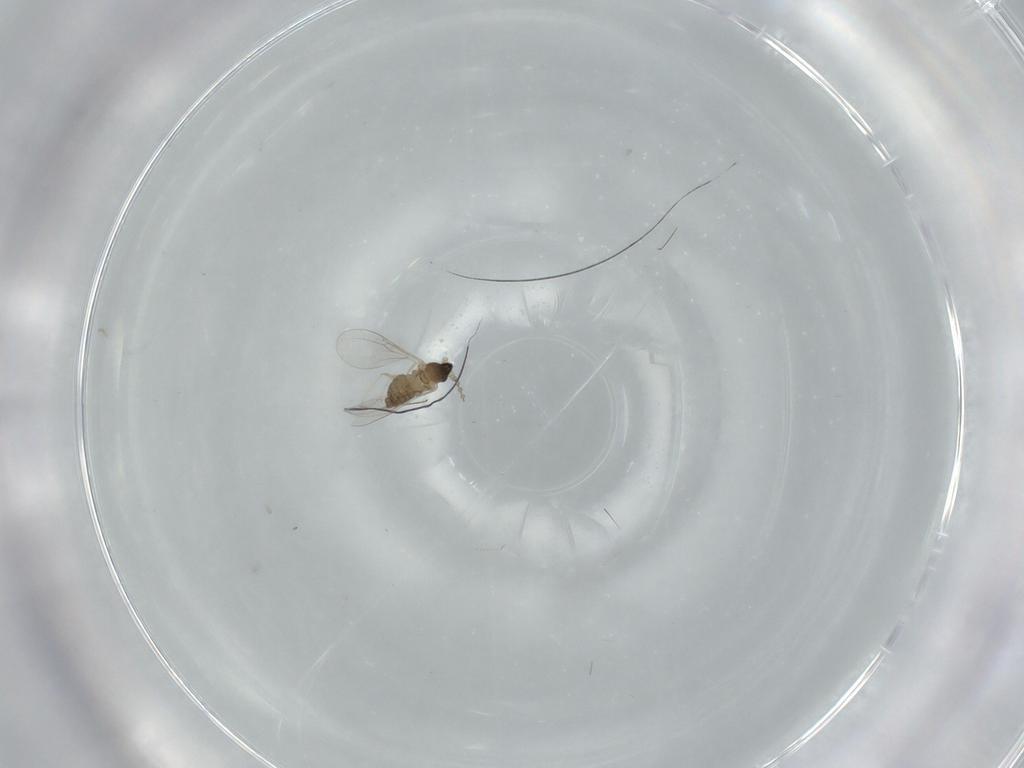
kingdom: Animalia
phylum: Arthropoda
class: Insecta
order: Diptera
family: Cecidomyiidae
